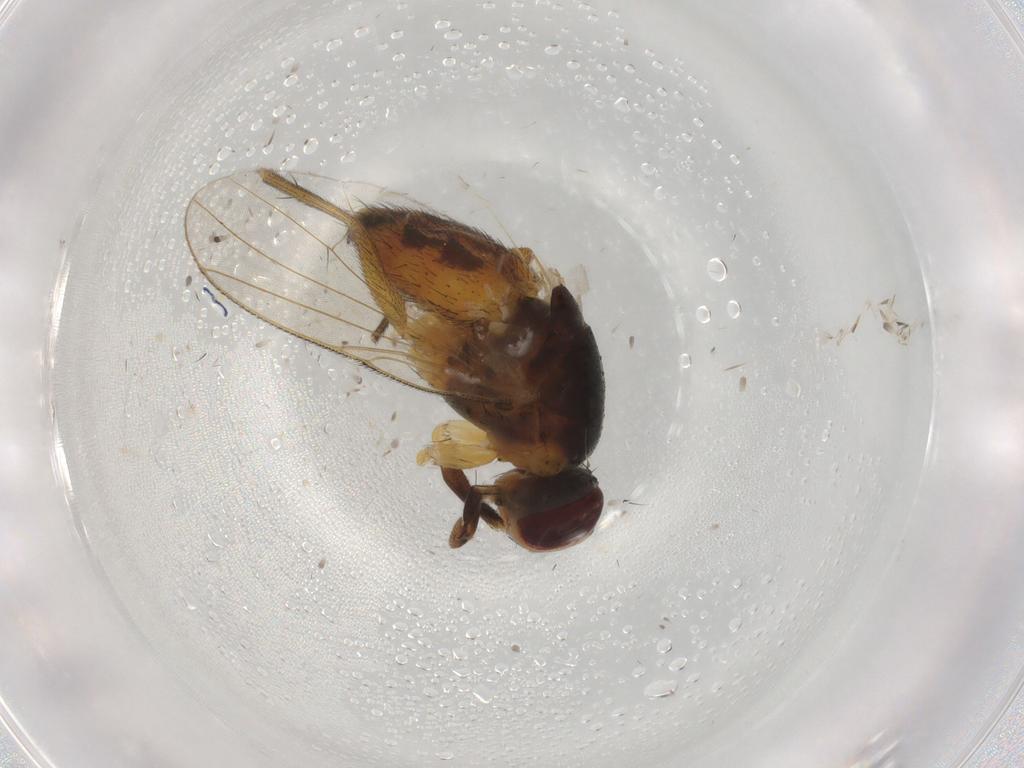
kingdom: Animalia
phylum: Arthropoda
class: Insecta
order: Diptera
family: Muscidae
